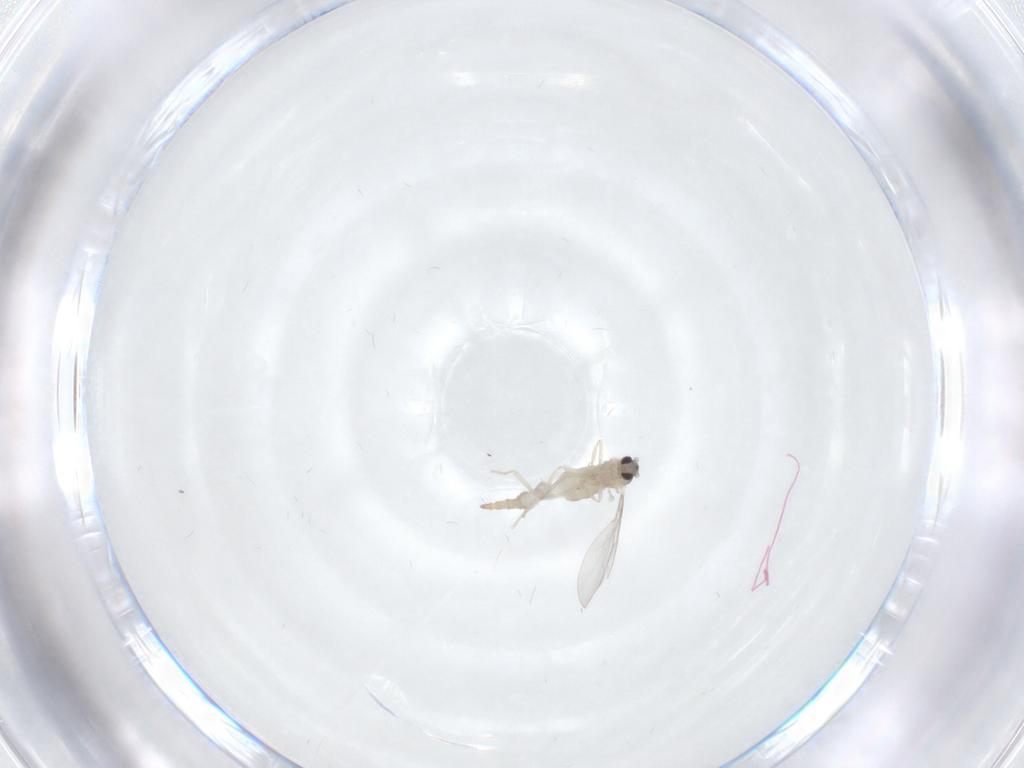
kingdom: Animalia
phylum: Arthropoda
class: Insecta
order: Diptera
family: Cecidomyiidae
